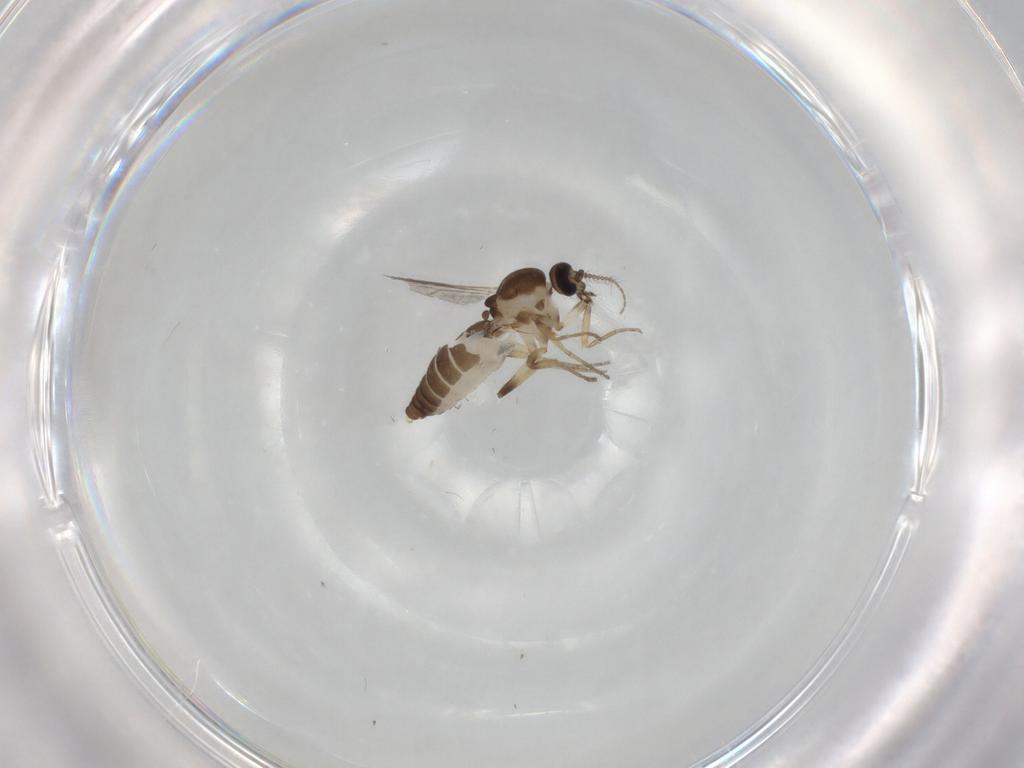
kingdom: Animalia
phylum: Arthropoda
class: Insecta
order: Diptera
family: Ceratopogonidae
